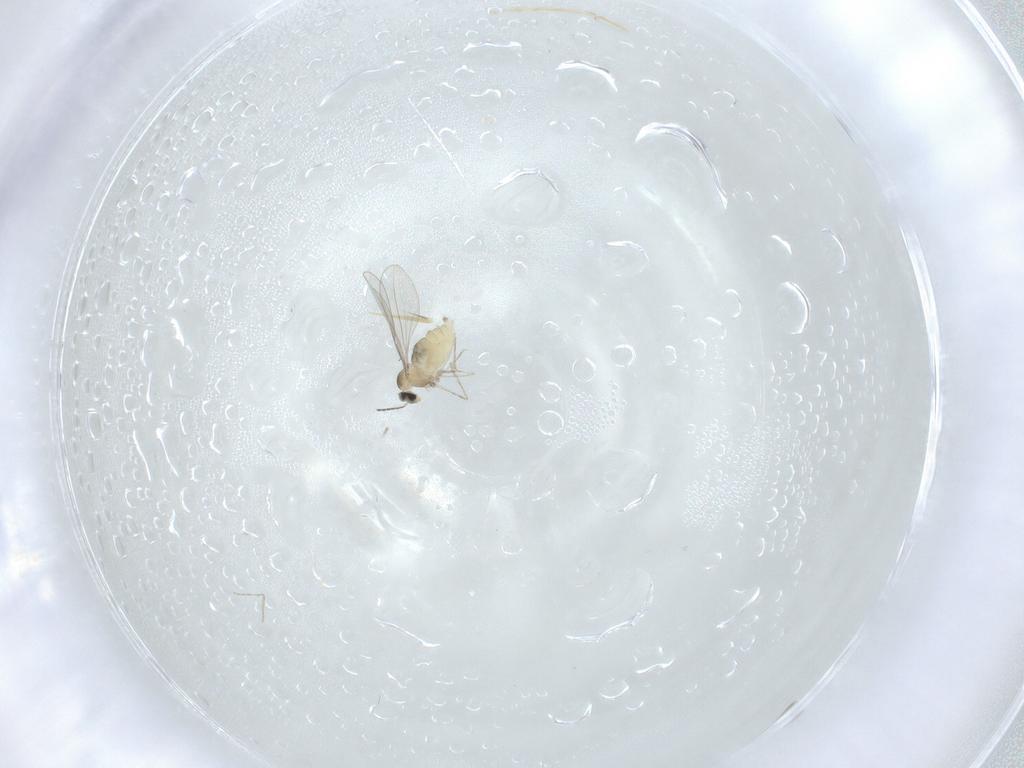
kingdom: Animalia
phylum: Arthropoda
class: Insecta
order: Diptera
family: Cecidomyiidae
